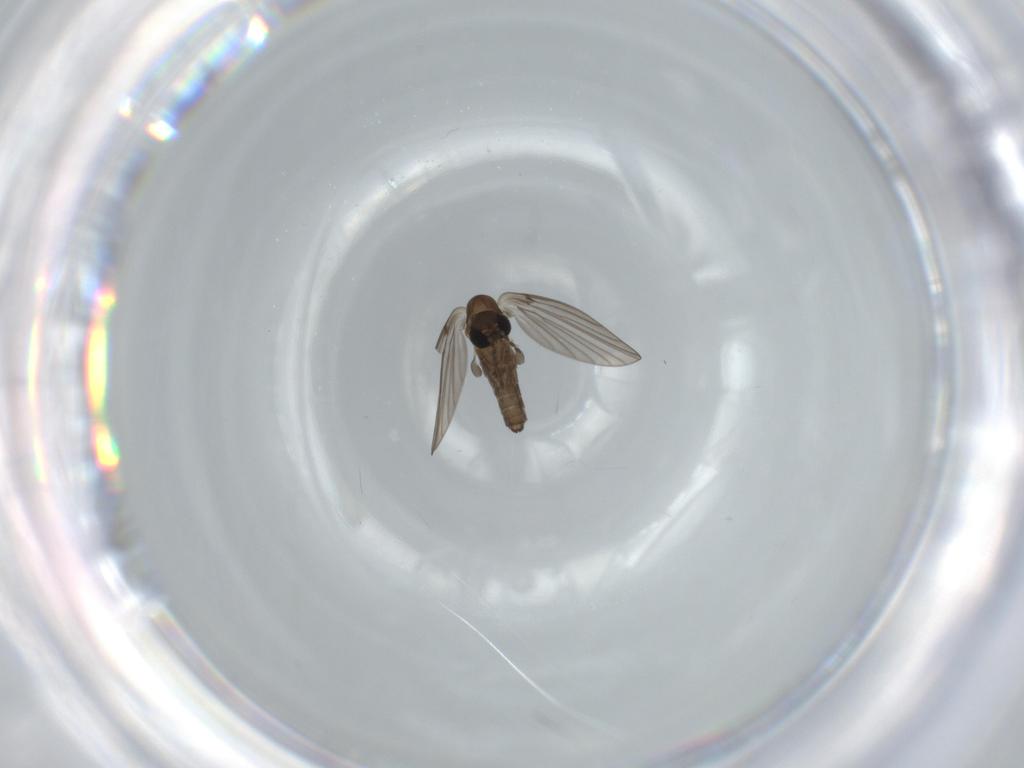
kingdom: Animalia
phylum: Arthropoda
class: Insecta
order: Diptera
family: Psychodidae
